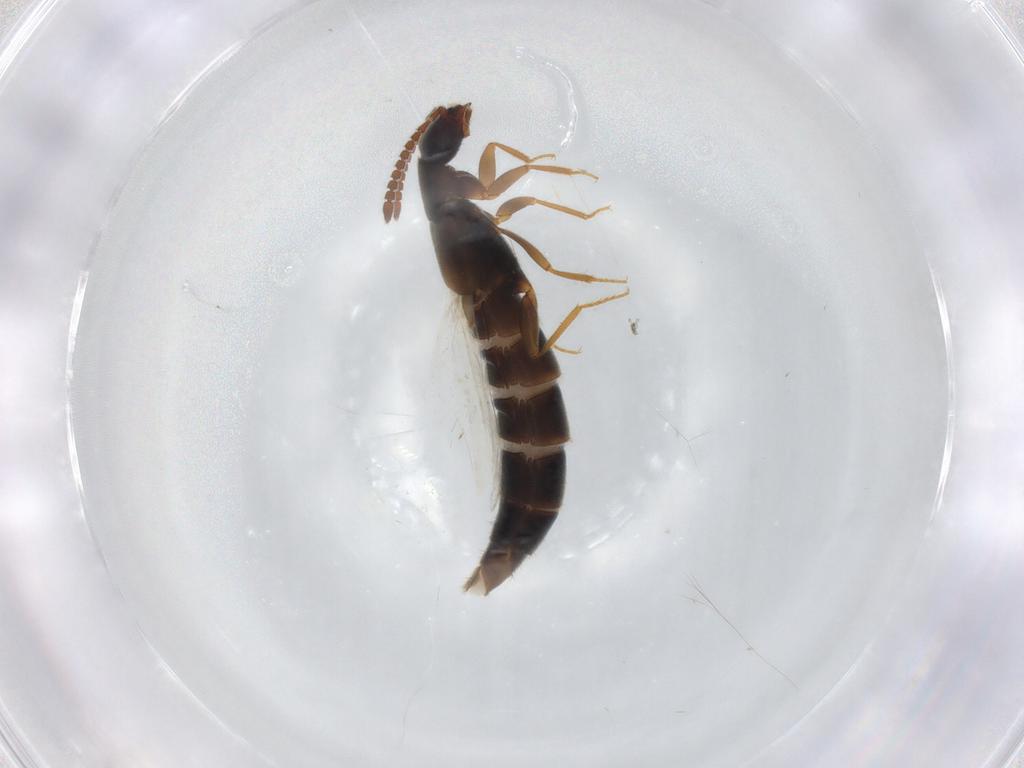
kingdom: Animalia
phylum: Arthropoda
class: Insecta
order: Coleoptera
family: Staphylinidae
